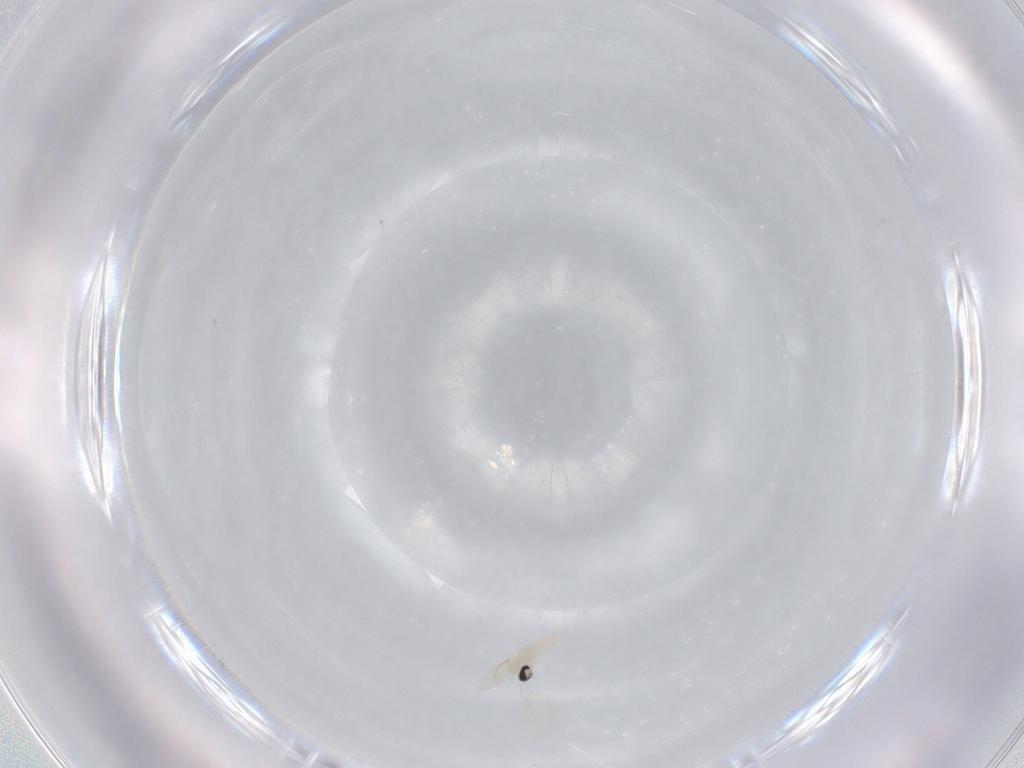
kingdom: Animalia
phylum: Arthropoda
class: Insecta
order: Diptera
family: Cecidomyiidae
